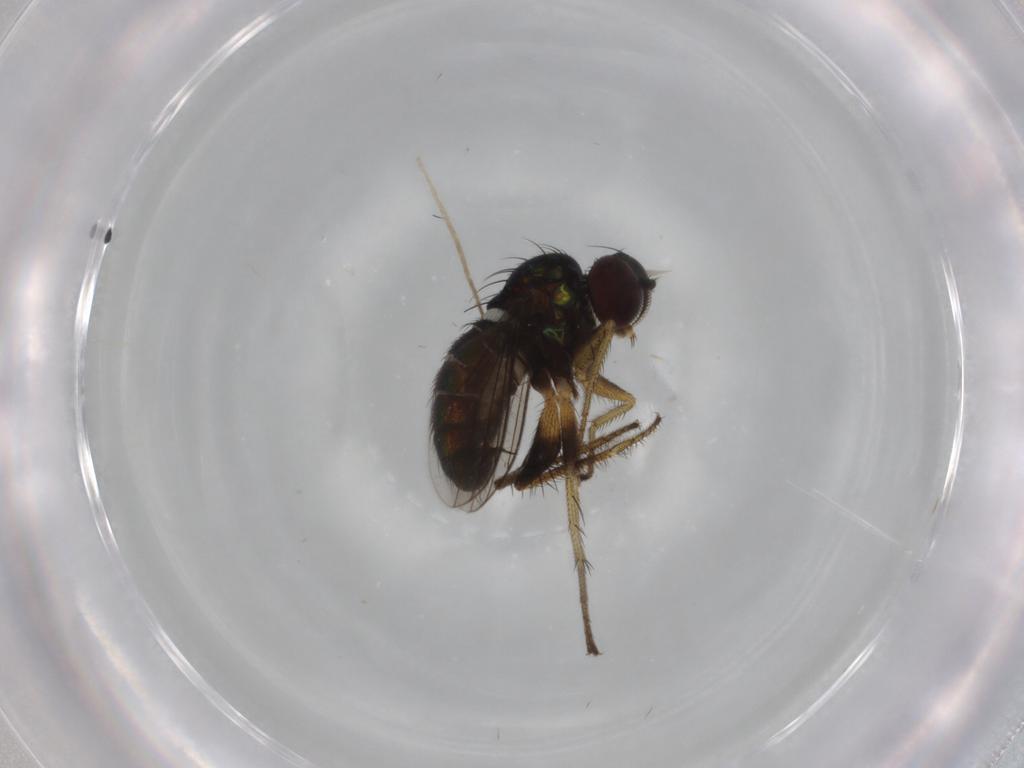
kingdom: Animalia
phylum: Arthropoda
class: Insecta
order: Diptera
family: Dolichopodidae
